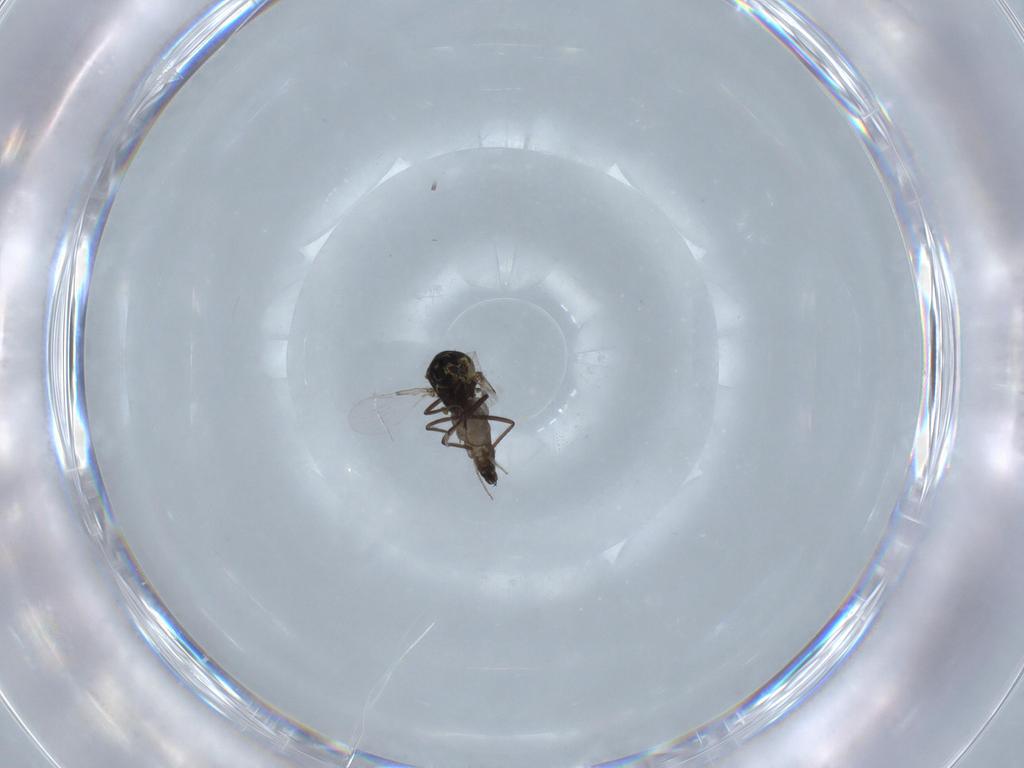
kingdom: Animalia
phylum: Arthropoda
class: Insecta
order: Diptera
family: Ceratopogonidae
